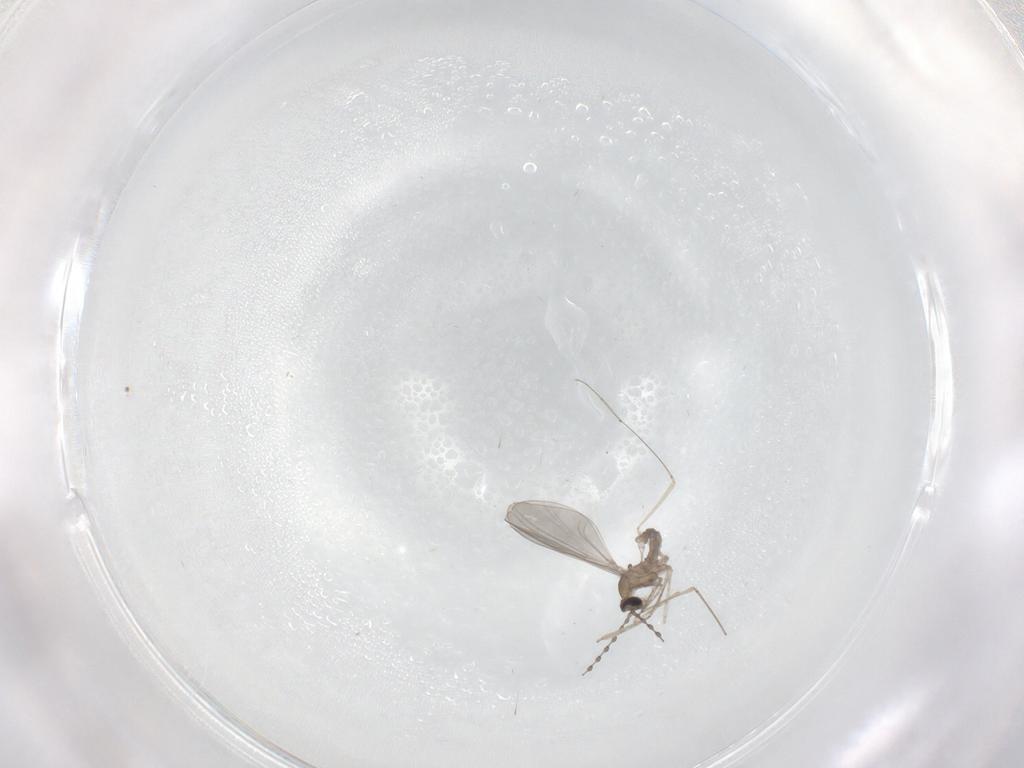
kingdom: Animalia
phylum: Arthropoda
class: Insecta
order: Diptera
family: Cecidomyiidae
